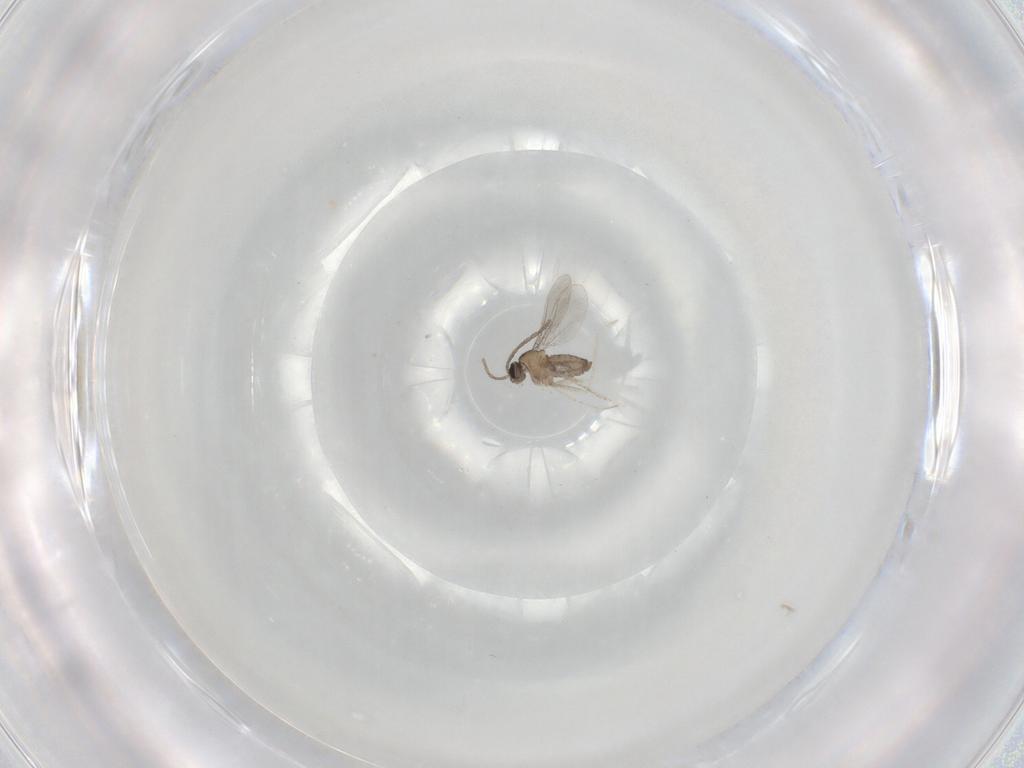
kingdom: Animalia
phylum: Arthropoda
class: Insecta
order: Diptera
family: Cecidomyiidae
